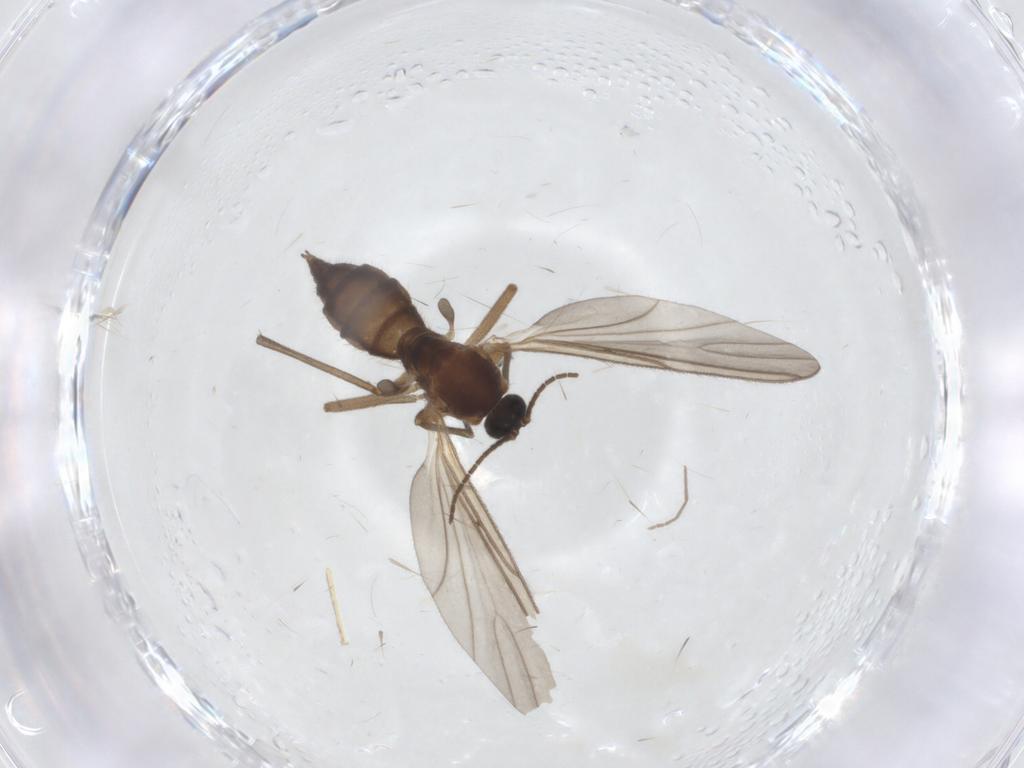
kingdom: Animalia
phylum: Arthropoda
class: Insecta
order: Diptera
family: Sciaridae
